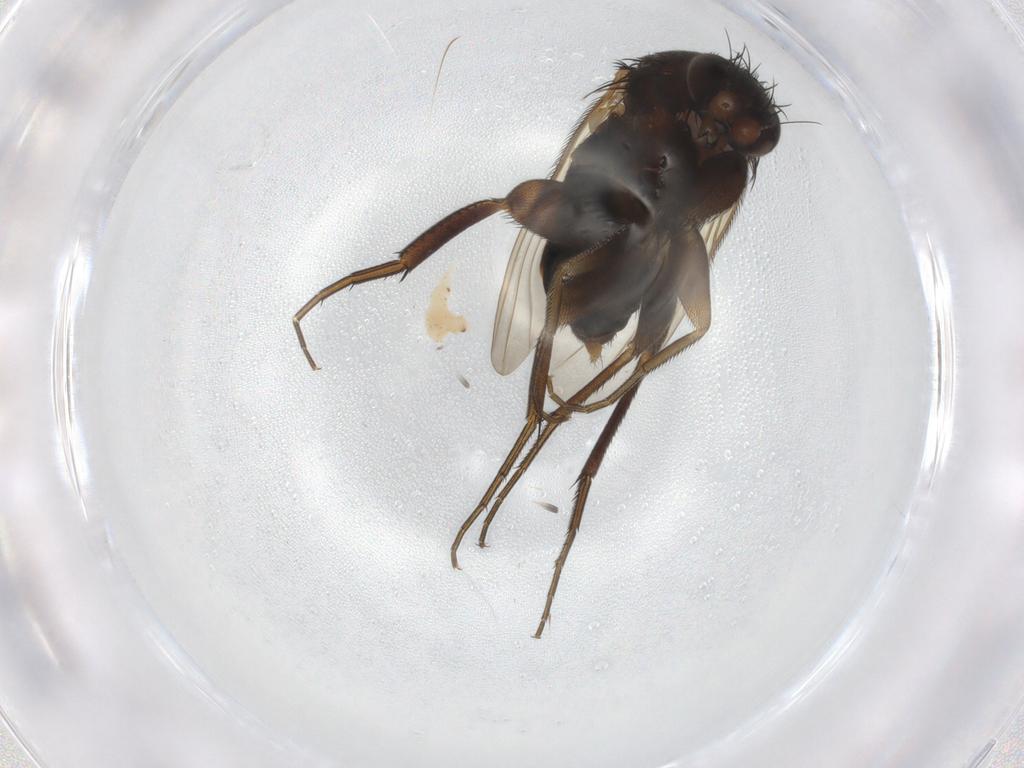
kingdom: Animalia
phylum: Arthropoda
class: Insecta
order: Diptera
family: Phoridae
